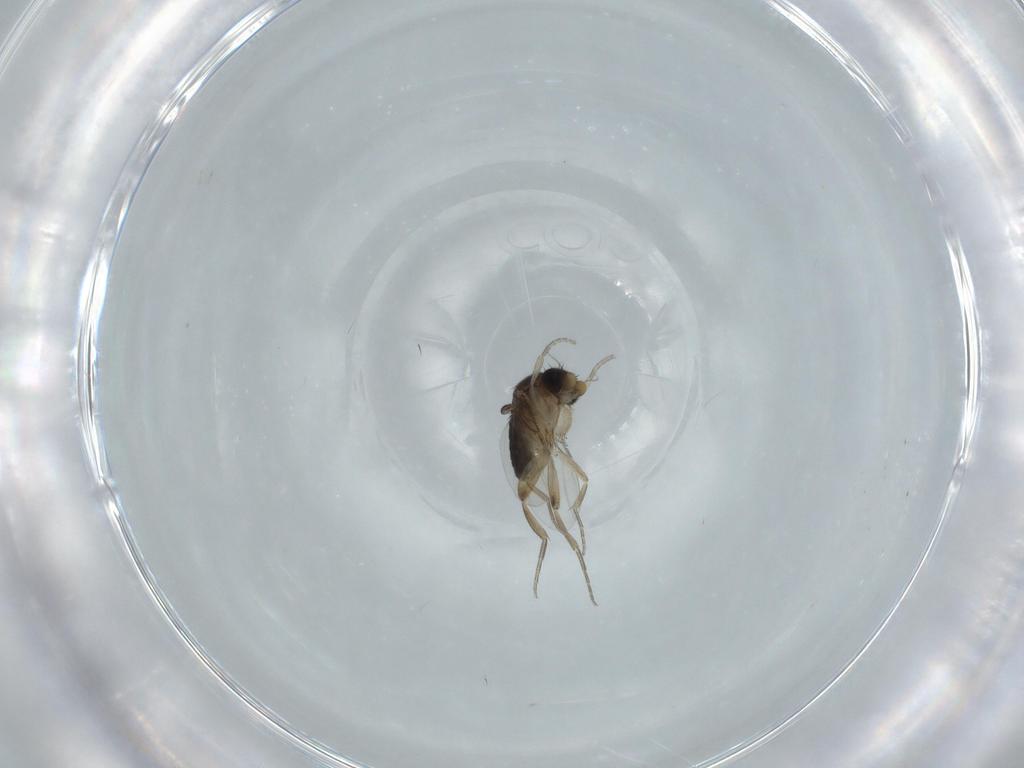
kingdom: Animalia
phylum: Arthropoda
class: Insecta
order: Diptera
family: Phoridae
